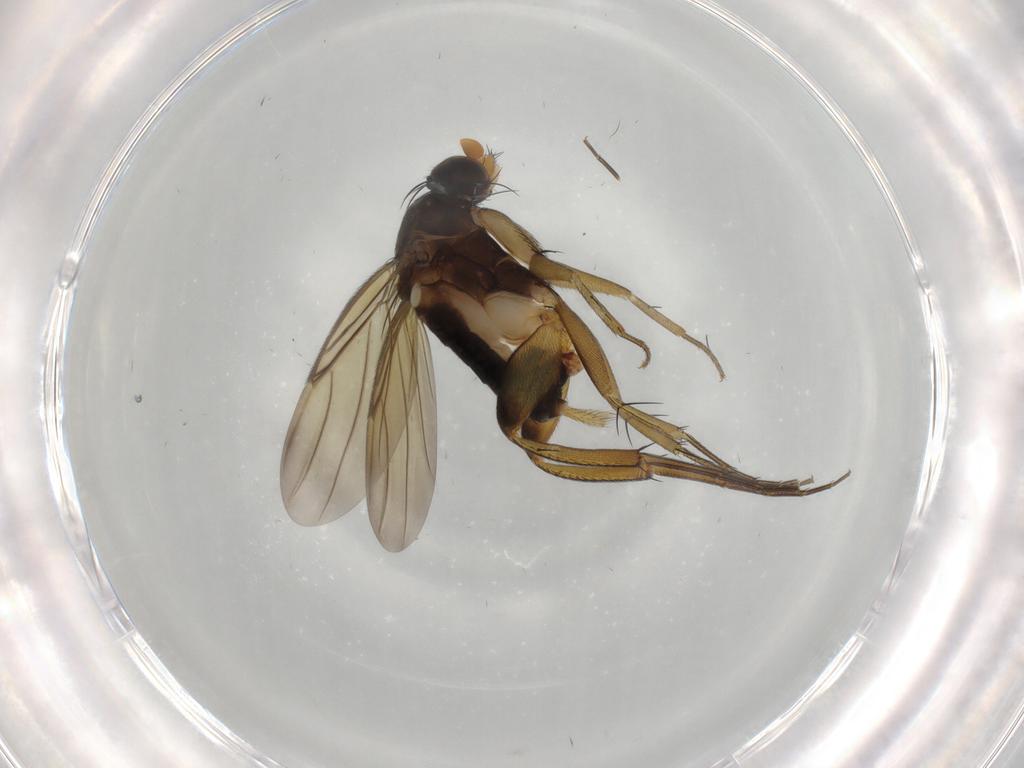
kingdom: Animalia
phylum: Arthropoda
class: Insecta
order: Diptera
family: Phoridae
